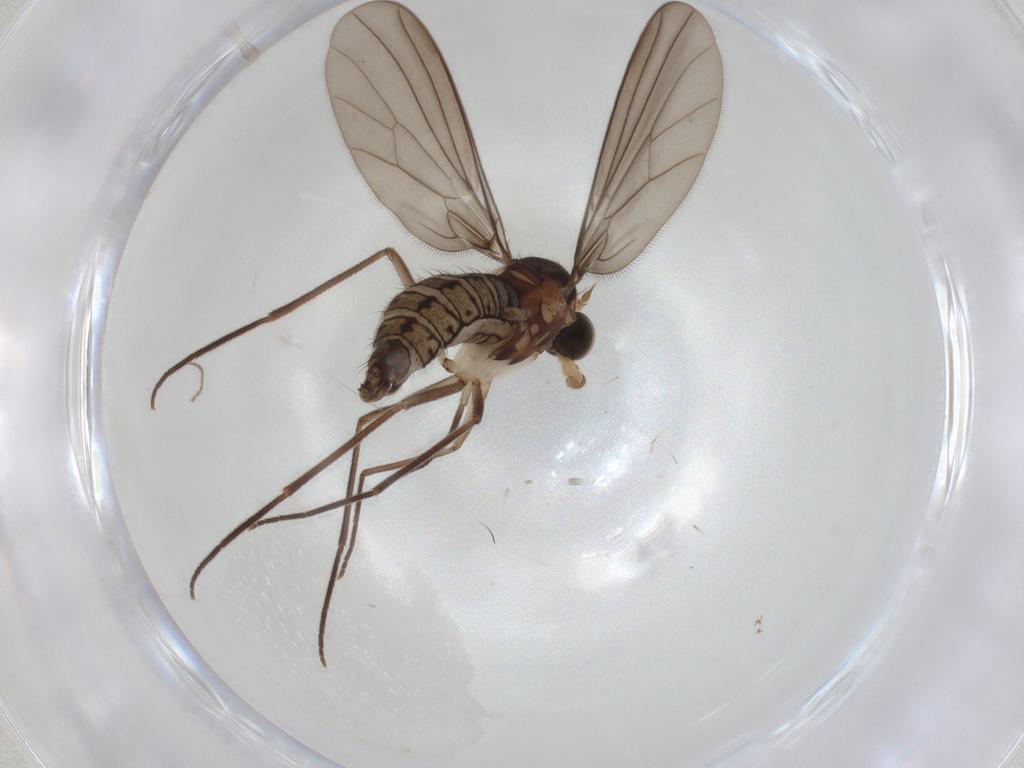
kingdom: Animalia
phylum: Arthropoda
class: Insecta
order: Diptera
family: Empididae
